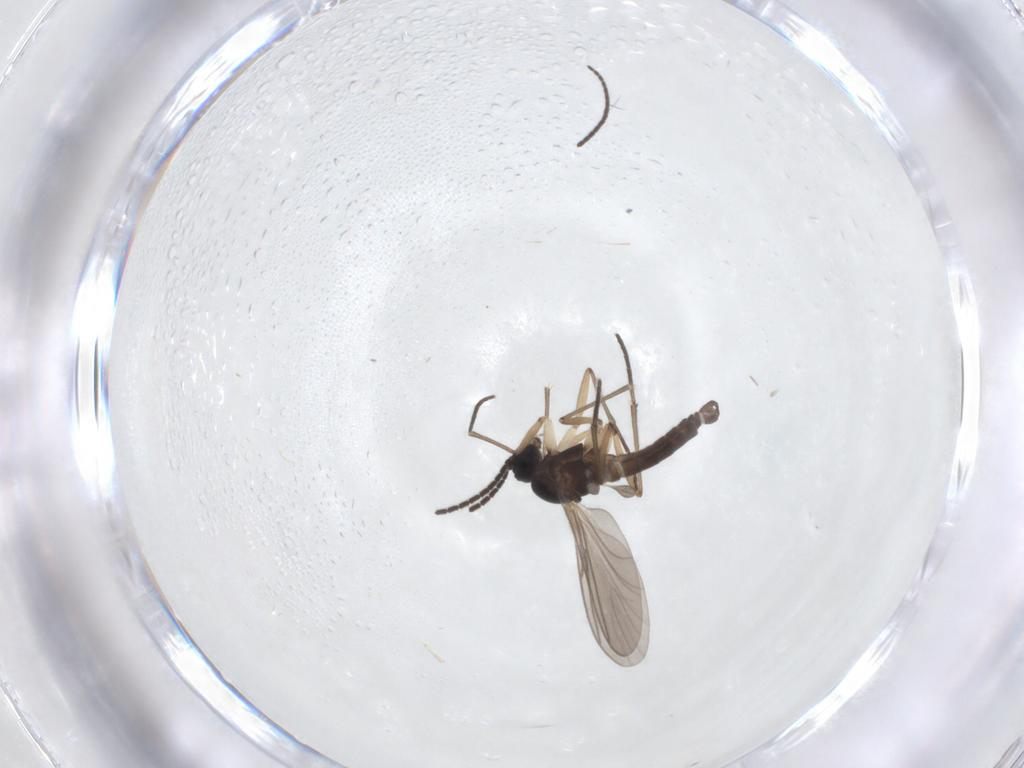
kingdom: Animalia
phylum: Arthropoda
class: Insecta
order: Diptera
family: Sciaridae
